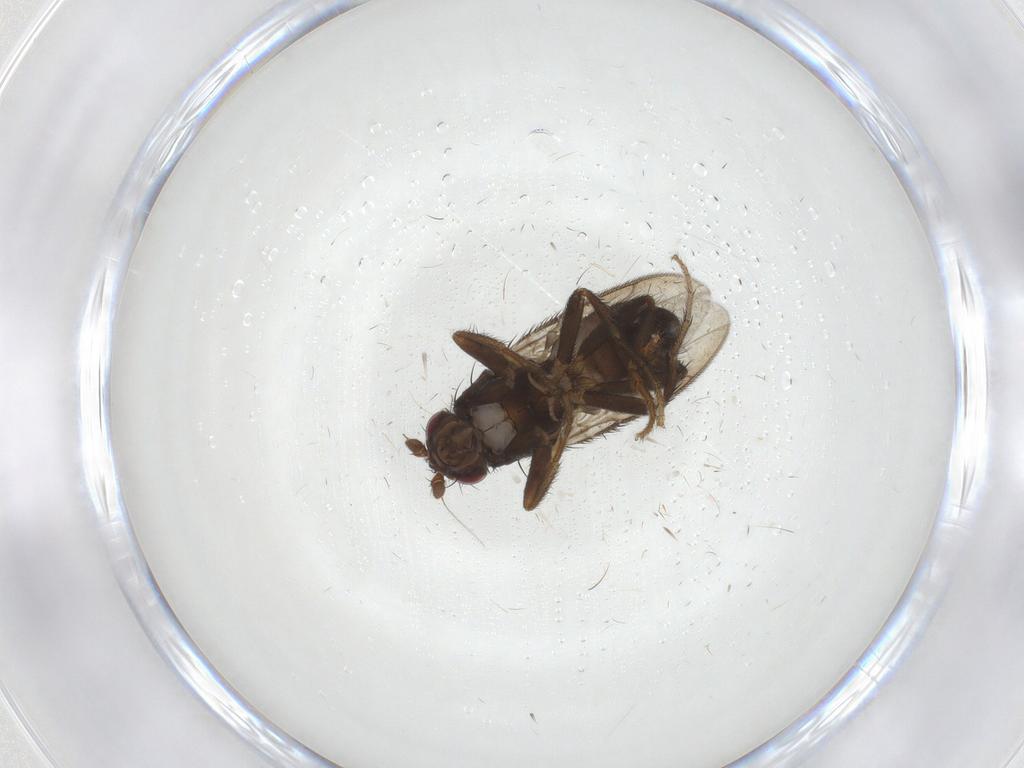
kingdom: Animalia
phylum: Arthropoda
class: Insecta
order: Diptera
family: Sphaeroceridae
